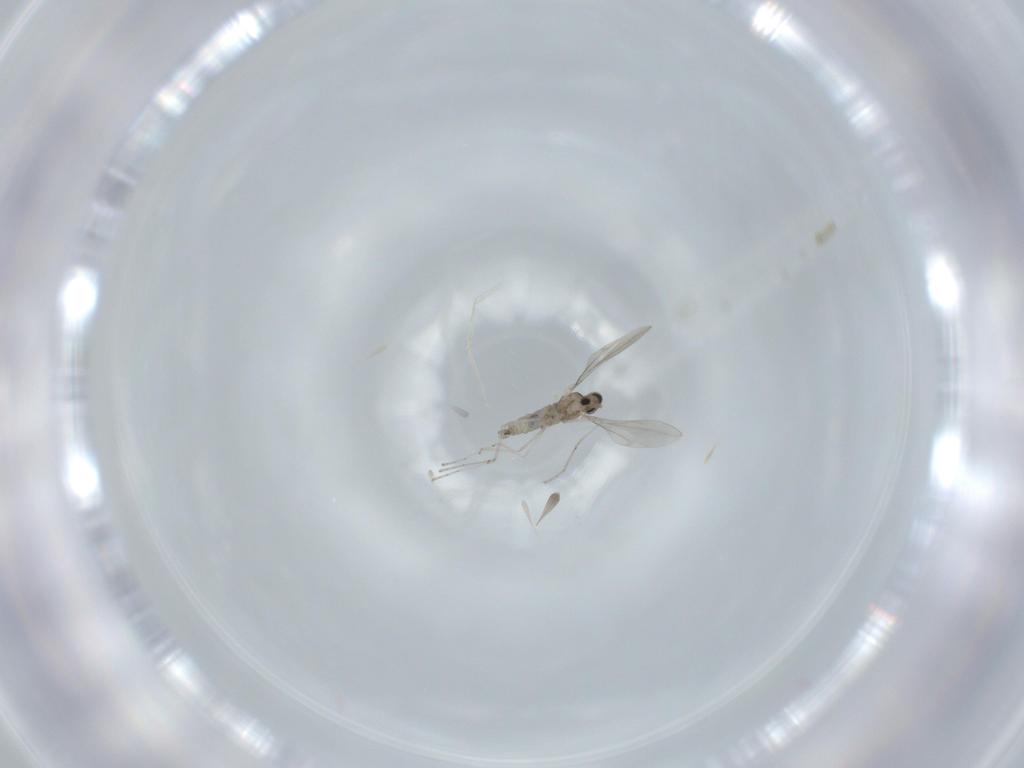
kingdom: Animalia
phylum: Arthropoda
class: Insecta
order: Diptera
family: Cecidomyiidae
